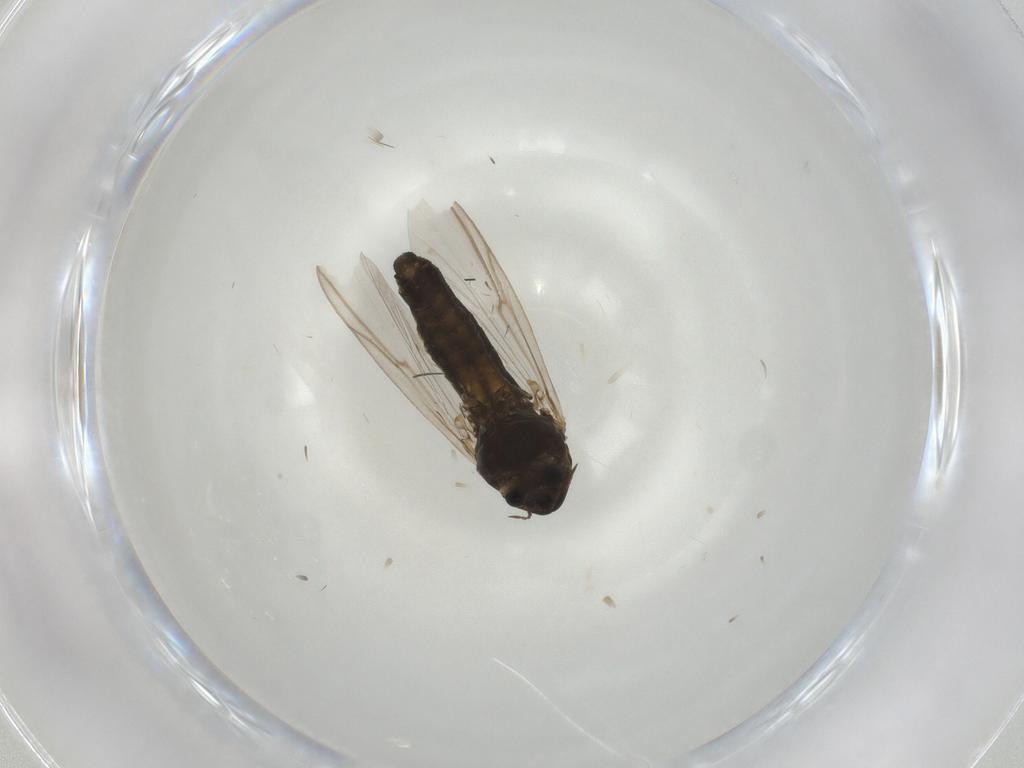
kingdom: Animalia
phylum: Arthropoda
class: Insecta
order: Diptera
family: Chironomidae
